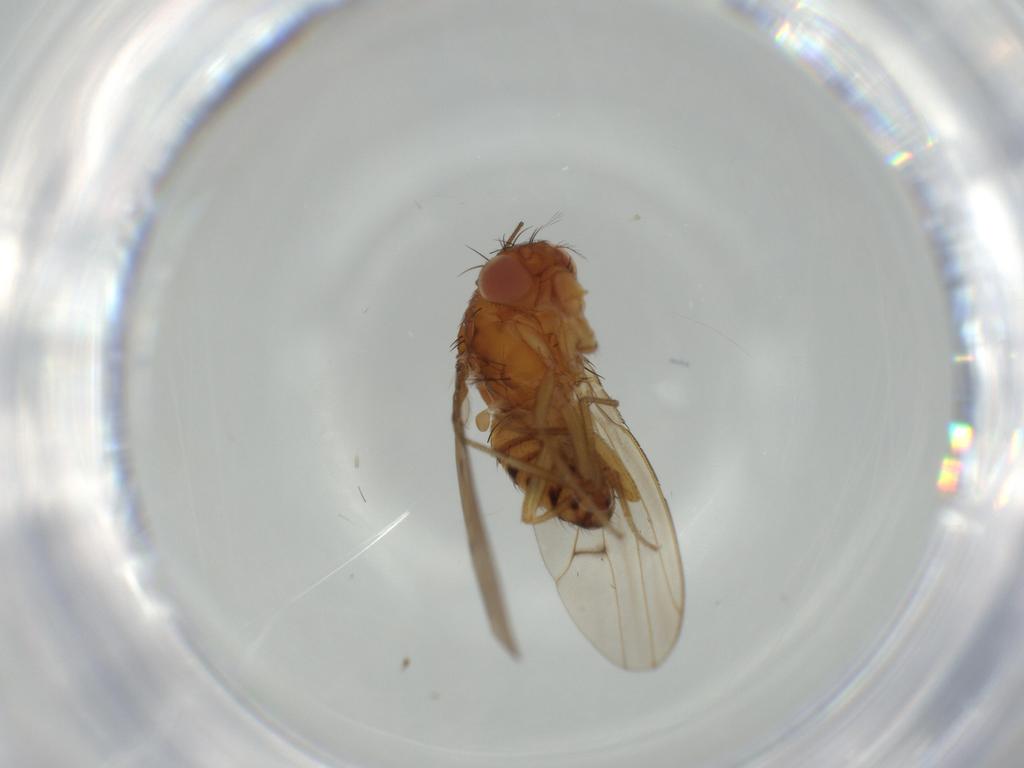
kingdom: Animalia
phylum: Arthropoda
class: Insecta
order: Diptera
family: Drosophilidae
